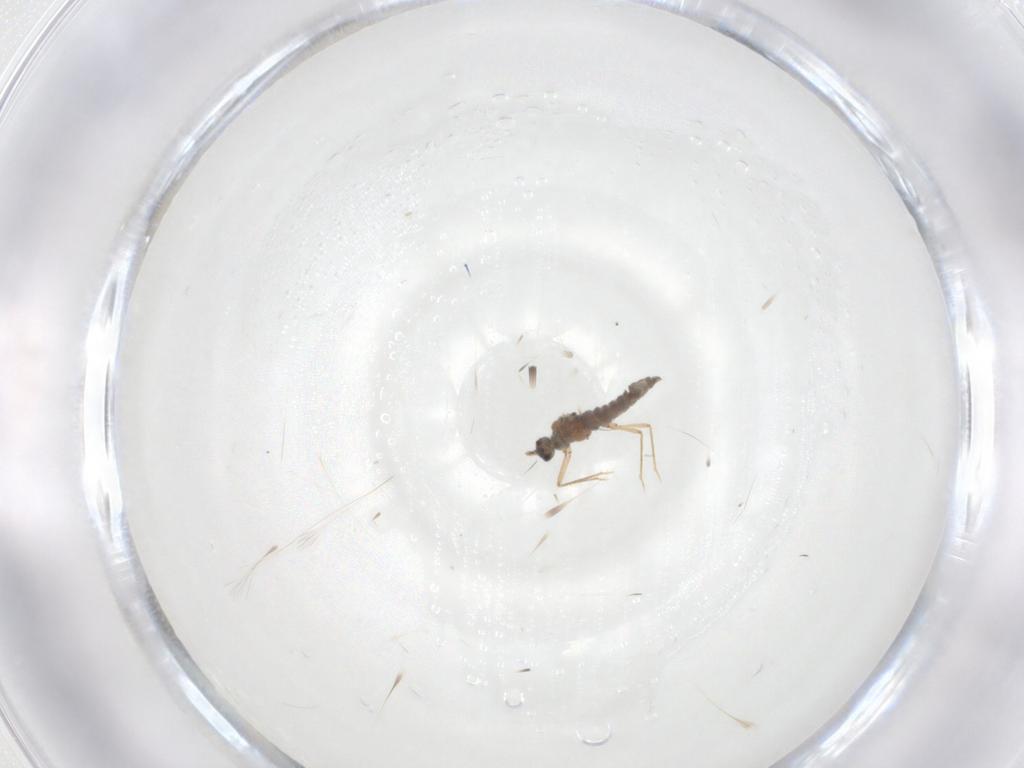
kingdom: Animalia
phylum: Arthropoda
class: Insecta
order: Hemiptera
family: Cicadellidae
